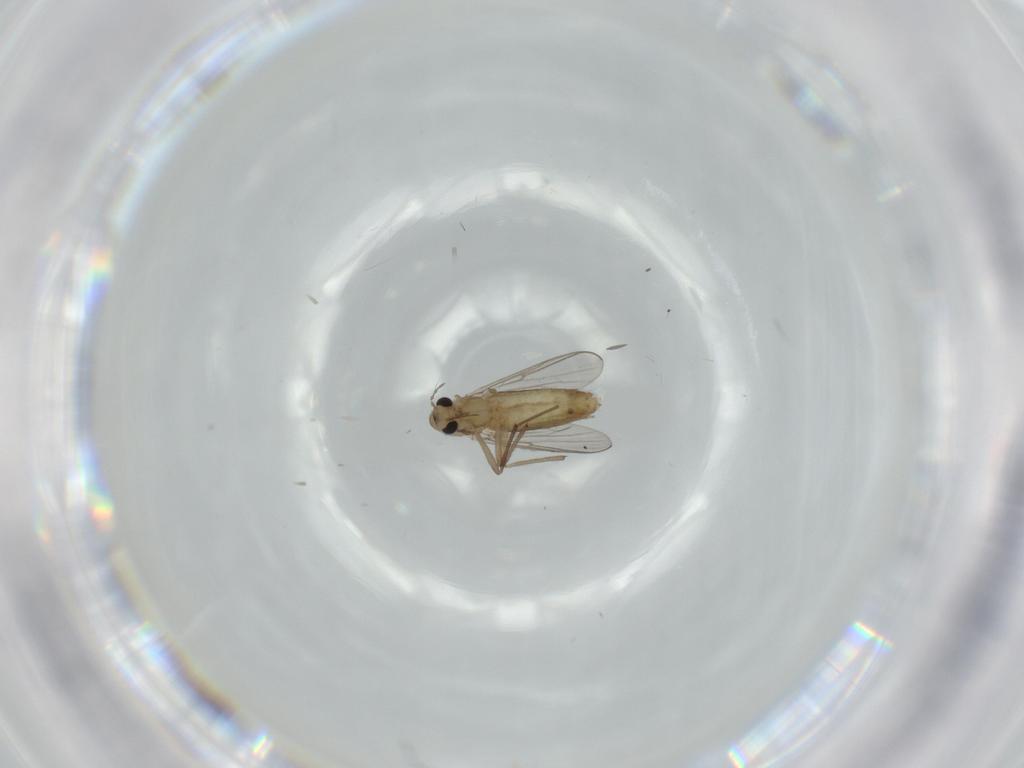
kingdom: Animalia
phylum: Arthropoda
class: Insecta
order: Diptera
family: Chironomidae
